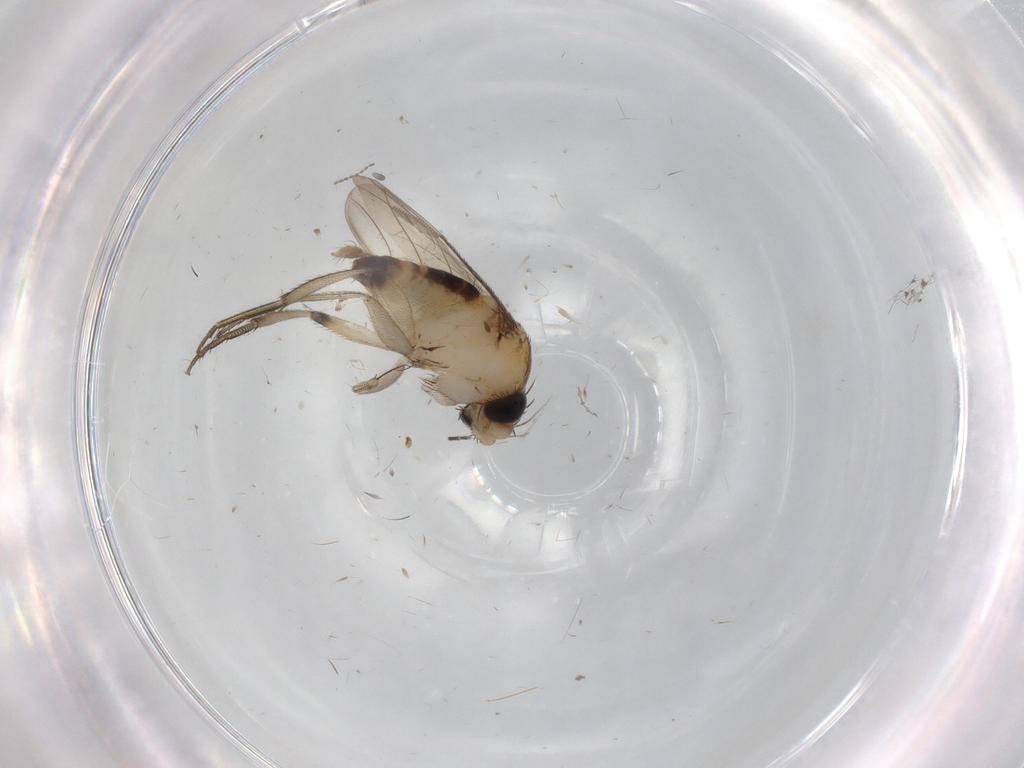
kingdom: Animalia
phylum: Arthropoda
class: Insecta
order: Diptera
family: Phoridae
